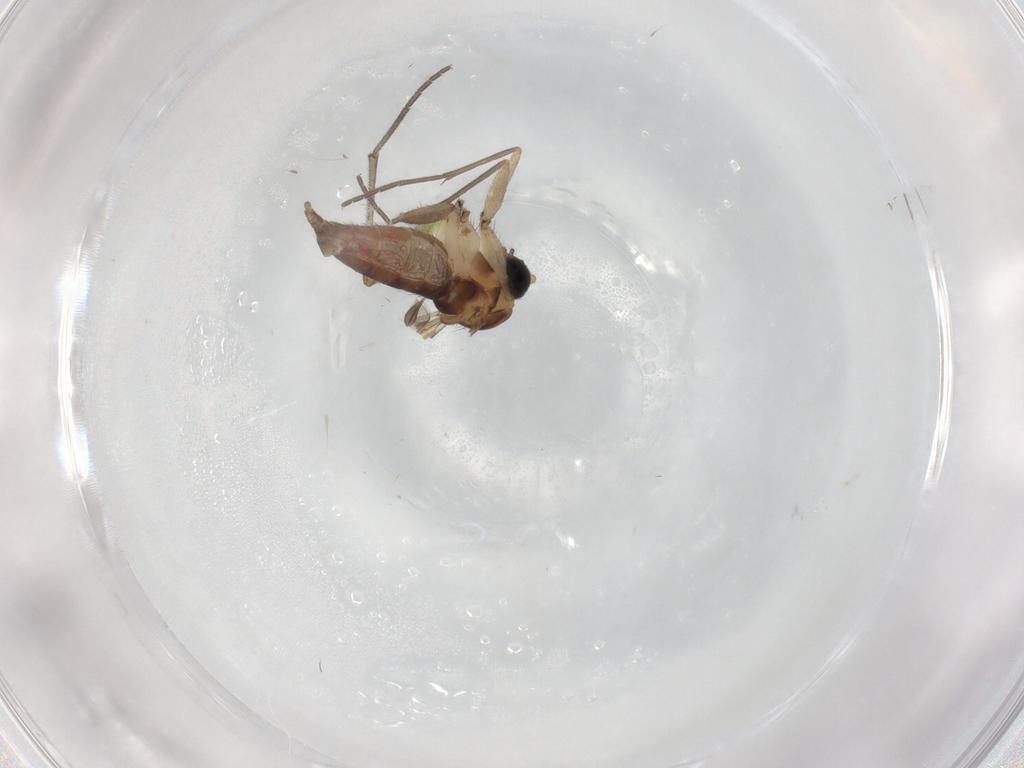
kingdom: Animalia
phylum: Arthropoda
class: Insecta
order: Diptera
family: Sciaridae
